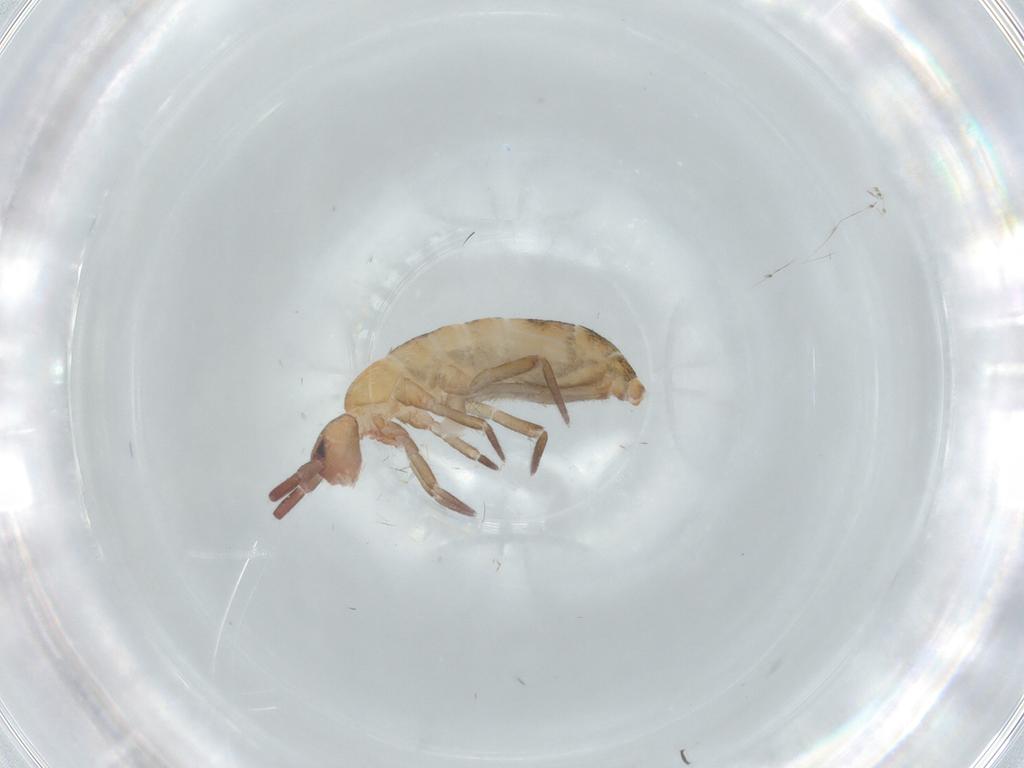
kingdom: Animalia
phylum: Arthropoda
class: Collembola
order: Entomobryomorpha
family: Tomoceridae
